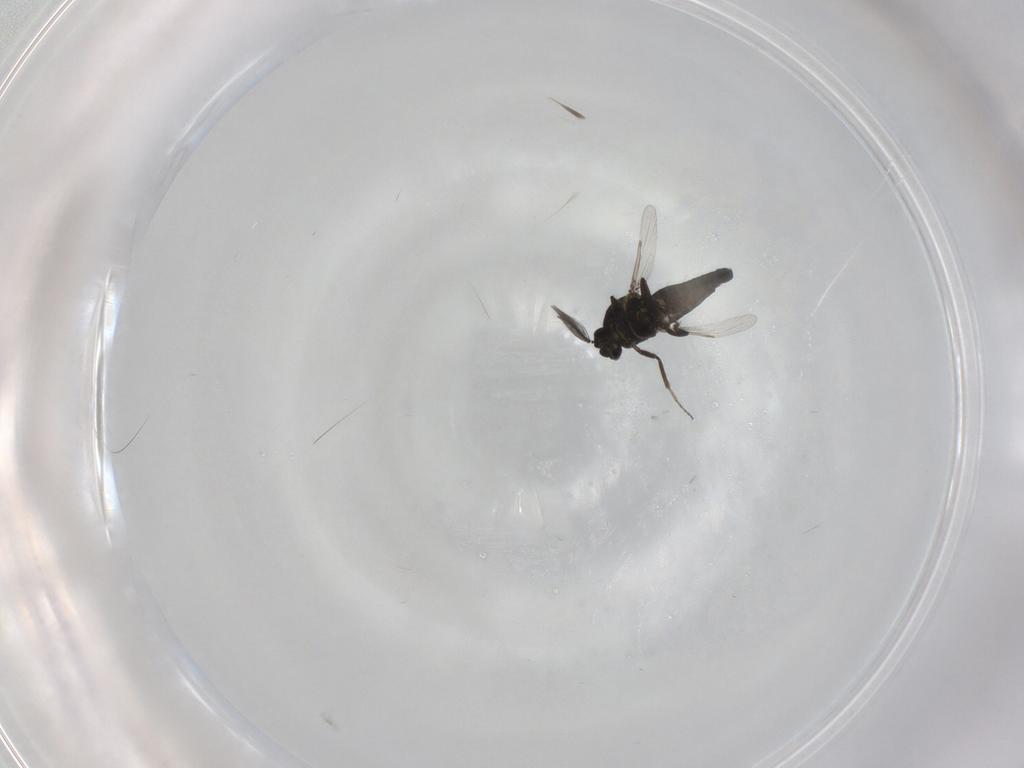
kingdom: Animalia
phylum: Arthropoda
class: Insecta
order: Diptera
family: Ceratopogonidae
